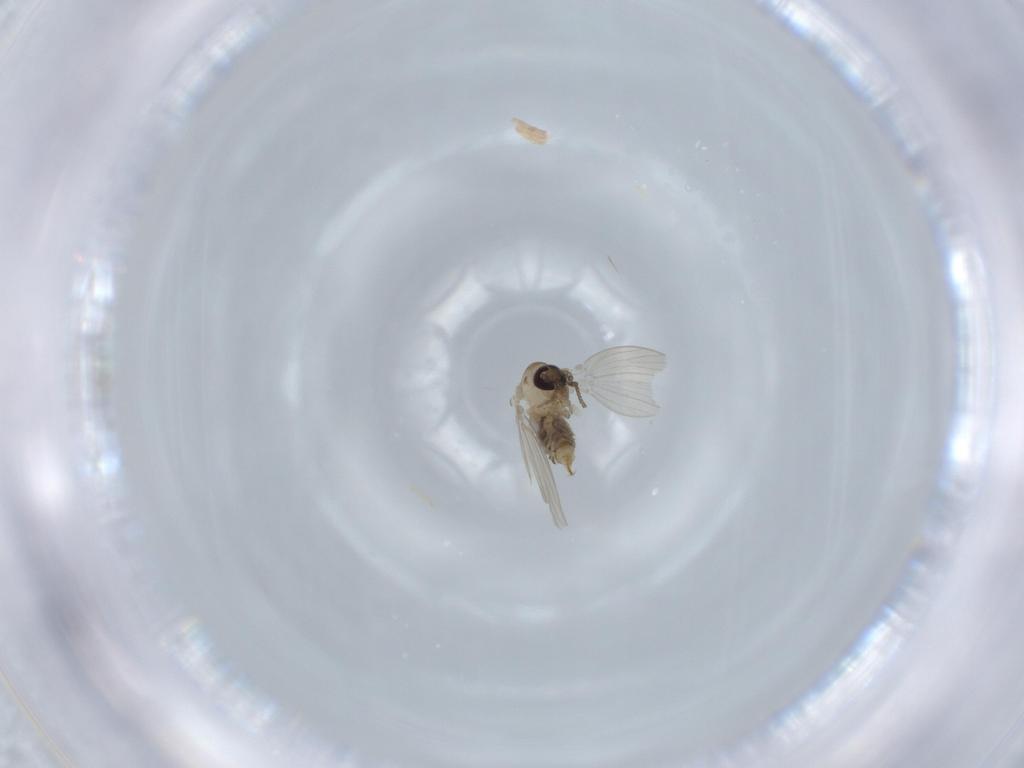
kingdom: Animalia
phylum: Arthropoda
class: Insecta
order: Diptera
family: Psychodidae
